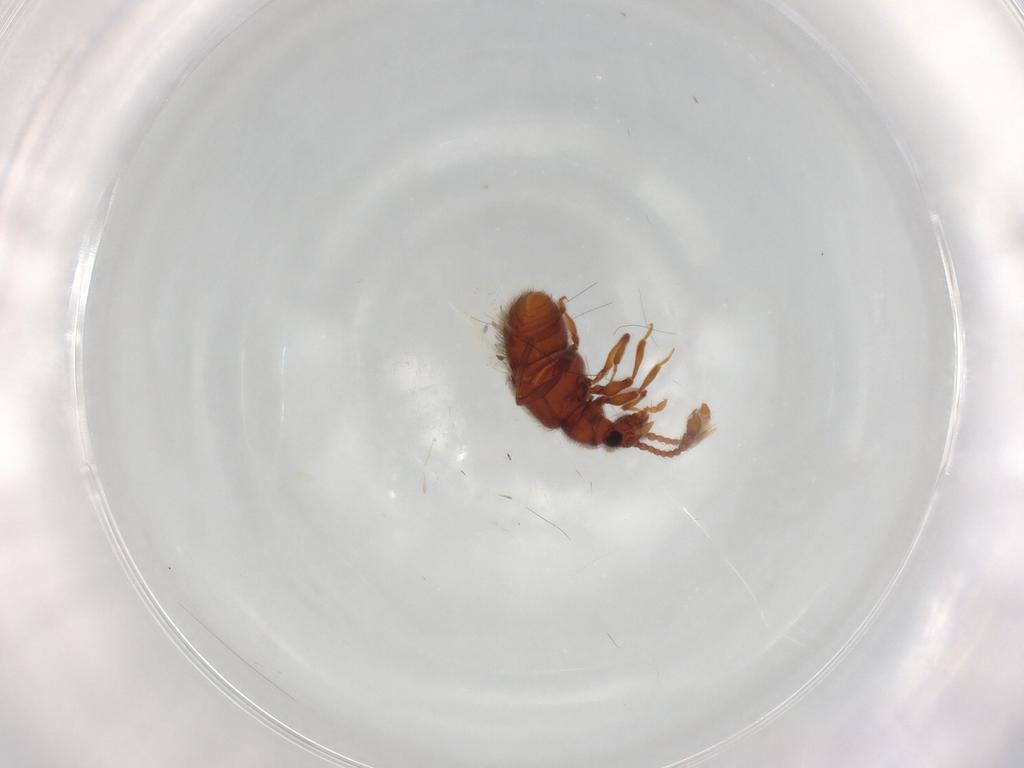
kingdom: Animalia
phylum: Arthropoda
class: Insecta
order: Coleoptera
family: Staphylinidae
